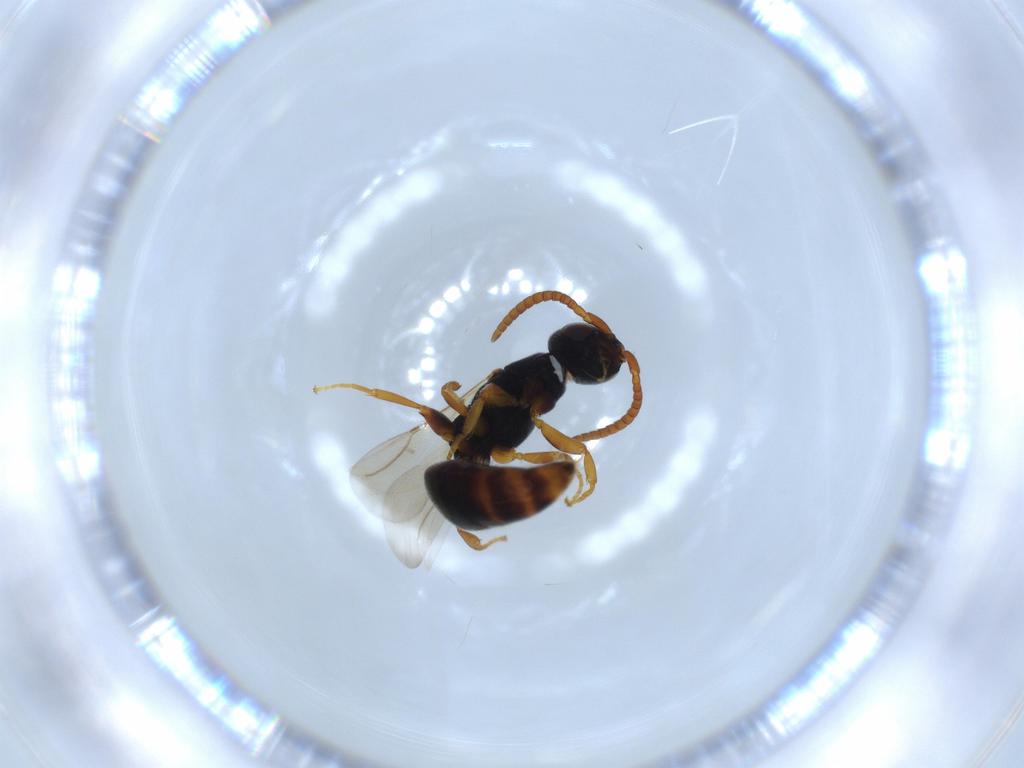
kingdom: Animalia
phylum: Arthropoda
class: Insecta
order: Hymenoptera
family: Bethylidae
